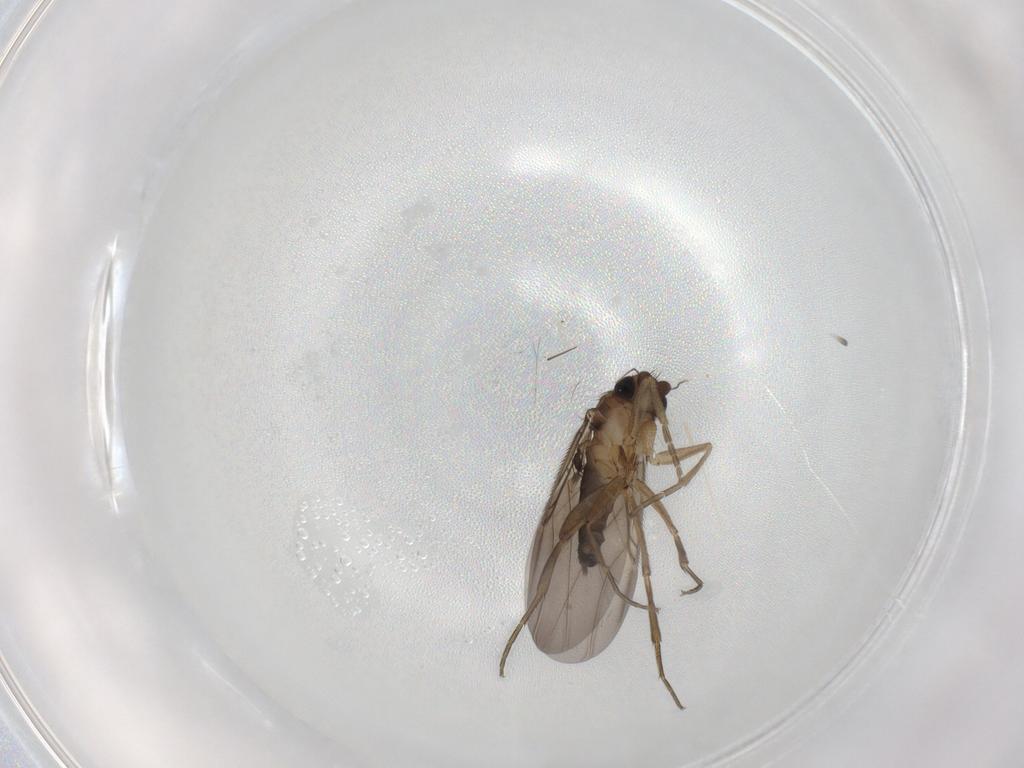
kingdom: Animalia
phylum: Arthropoda
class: Insecta
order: Diptera
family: Phoridae
